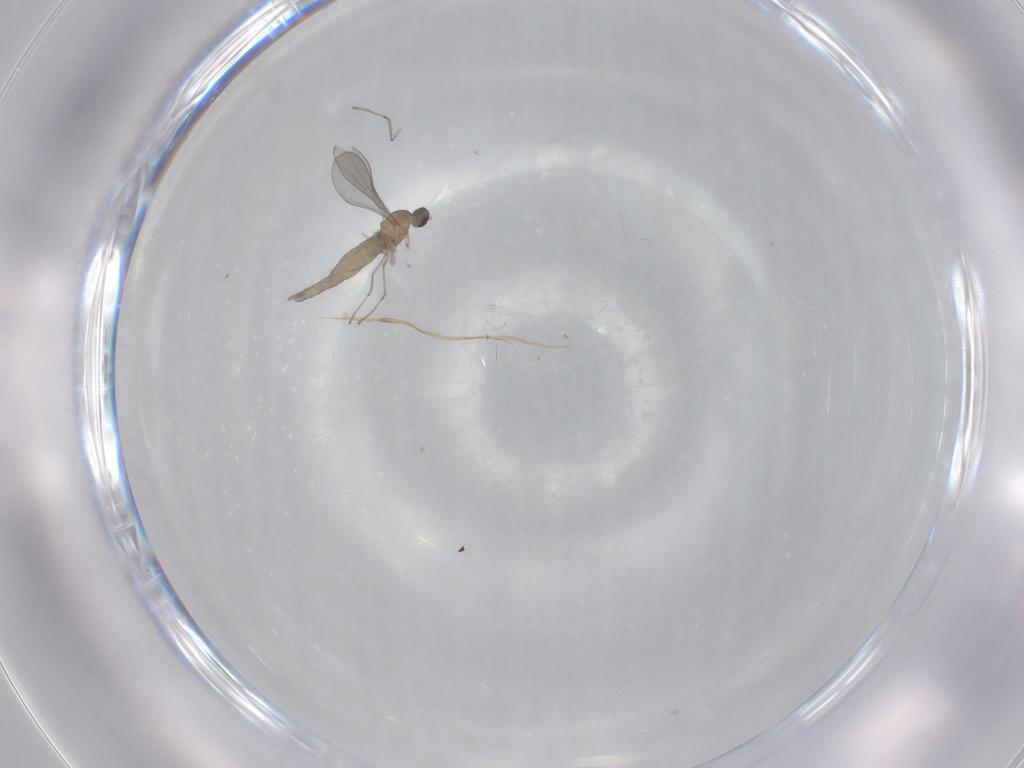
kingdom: Animalia
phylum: Arthropoda
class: Insecta
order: Diptera
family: Cecidomyiidae
